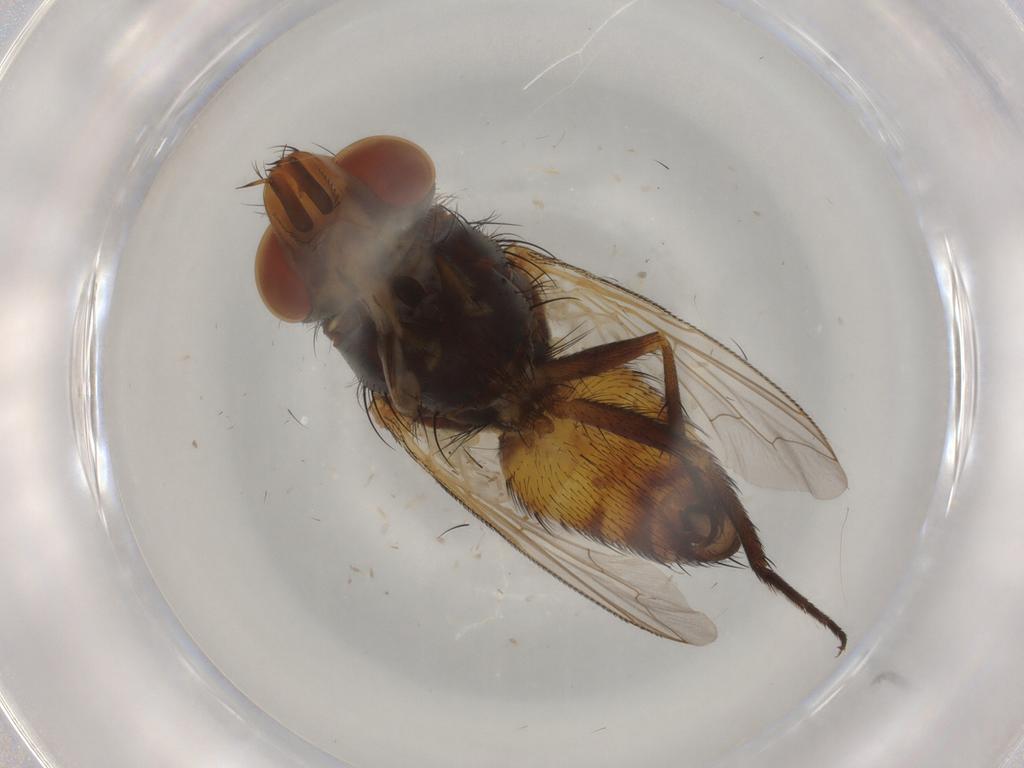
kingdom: Animalia
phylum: Arthropoda
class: Insecta
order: Diptera
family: Sarcophagidae
